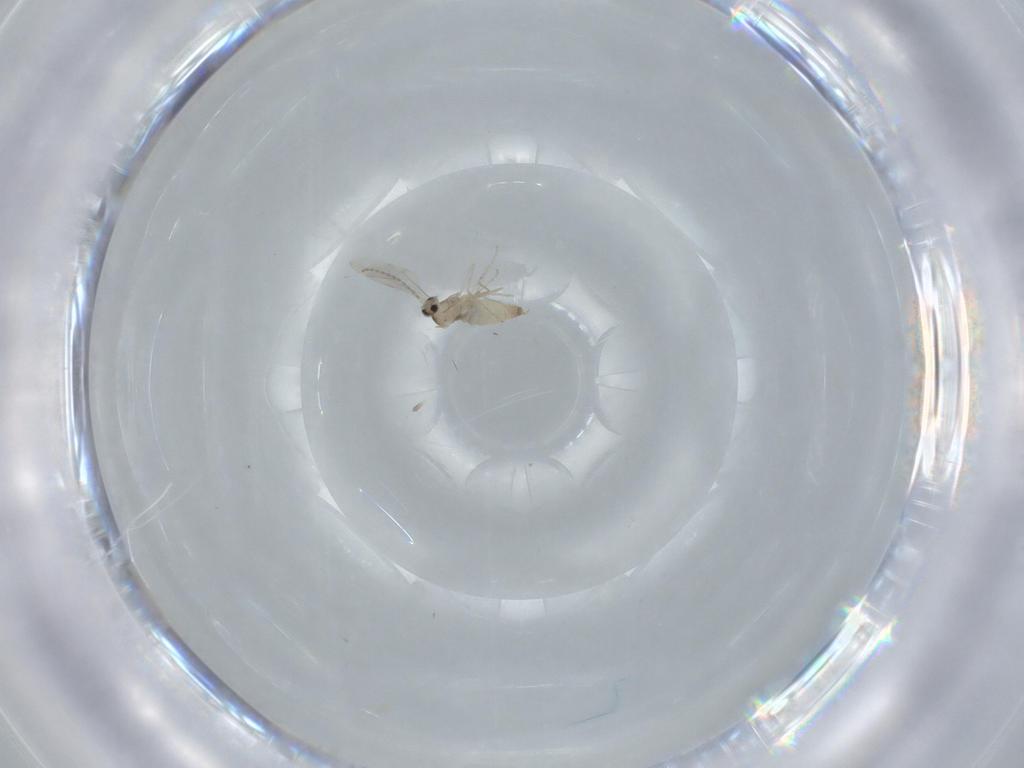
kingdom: Animalia
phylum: Arthropoda
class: Insecta
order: Diptera
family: Cecidomyiidae
